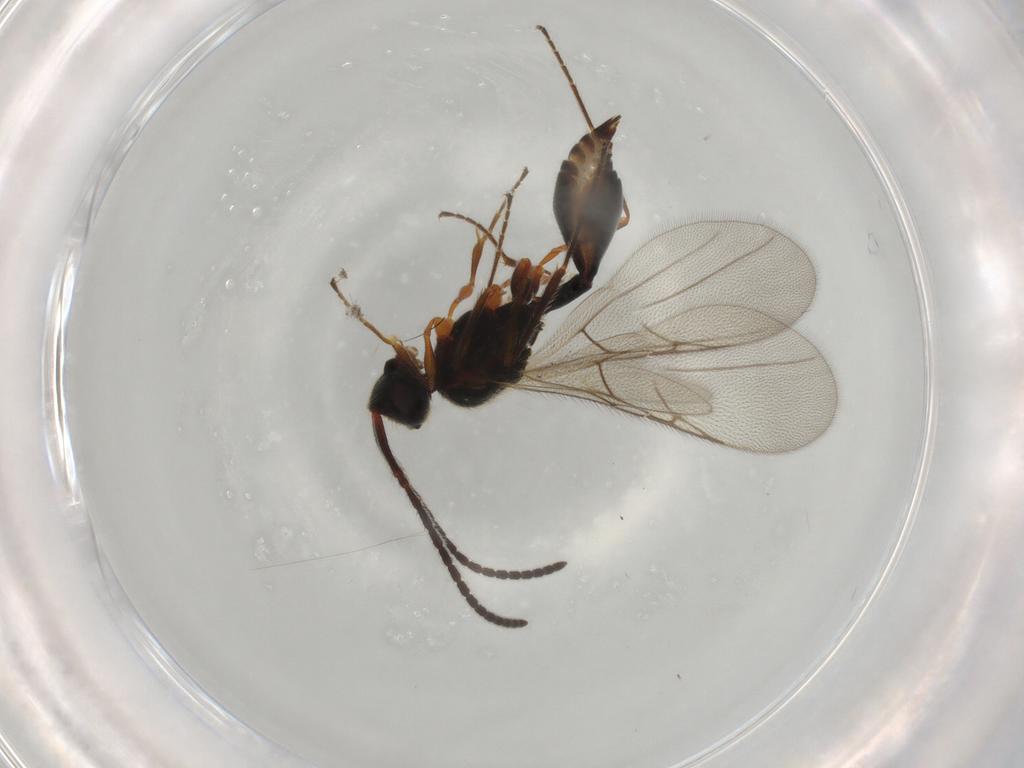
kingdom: Animalia
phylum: Arthropoda
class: Insecta
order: Hymenoptera
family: Diapriidae
